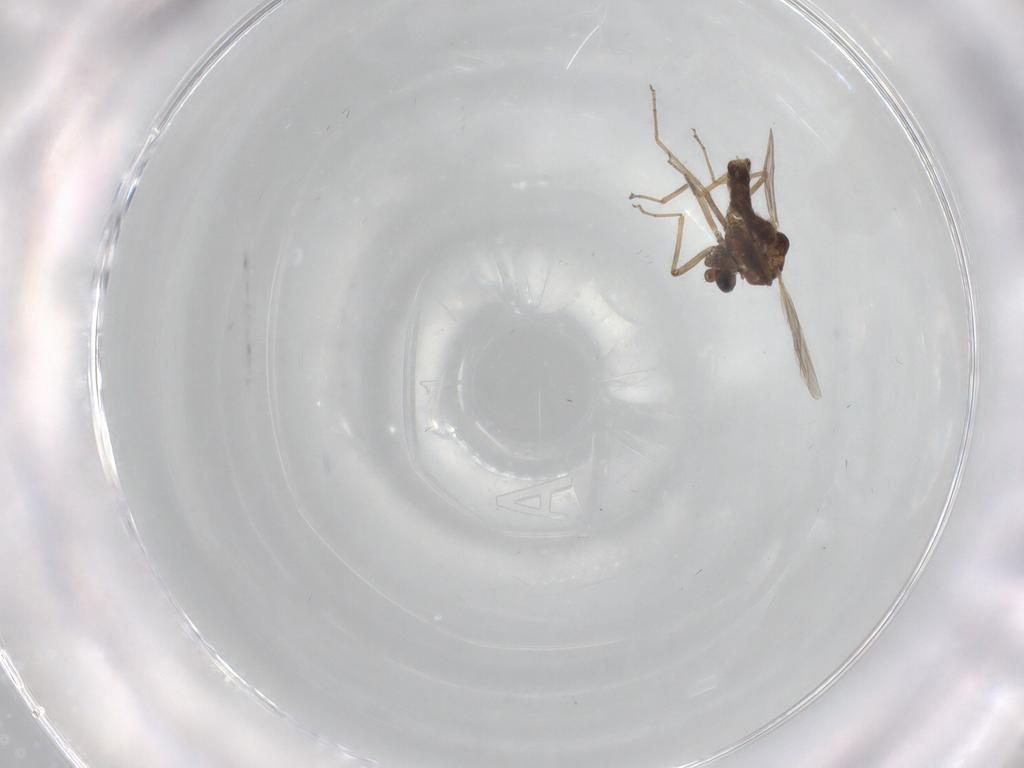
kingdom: Animalia
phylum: Arthropoda
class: Insecta
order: Diptera
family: Ceratopogonidae
